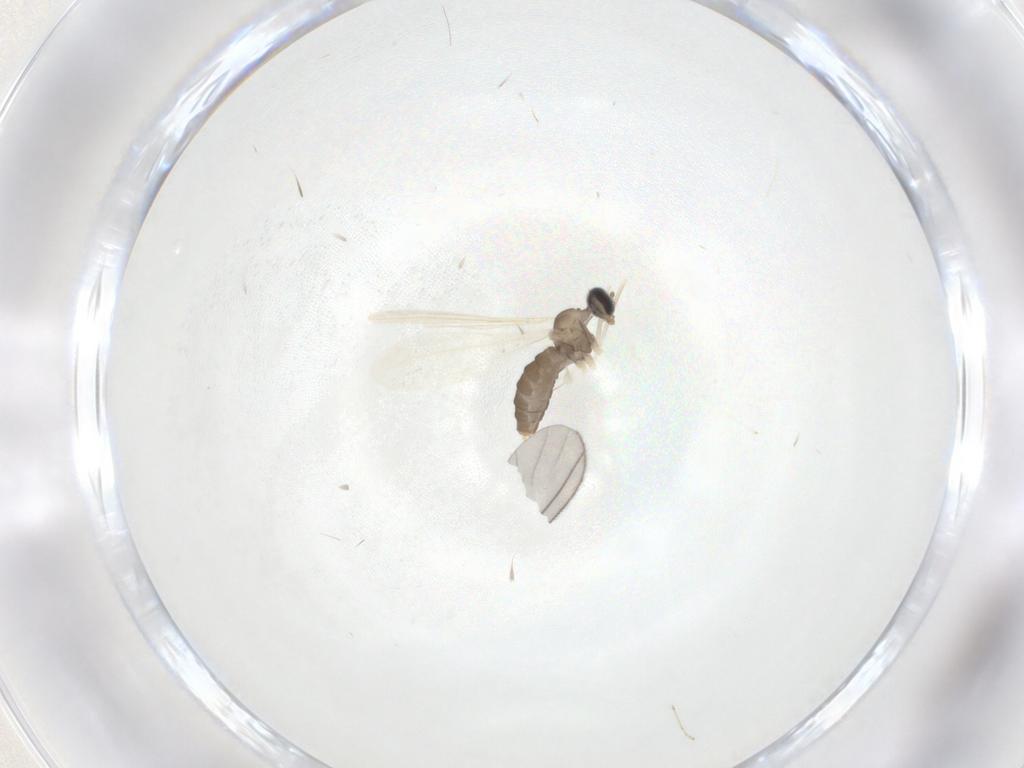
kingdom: Animalia
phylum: Arthropoda
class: Insecta
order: Diptera
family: Cecidomyiidae
